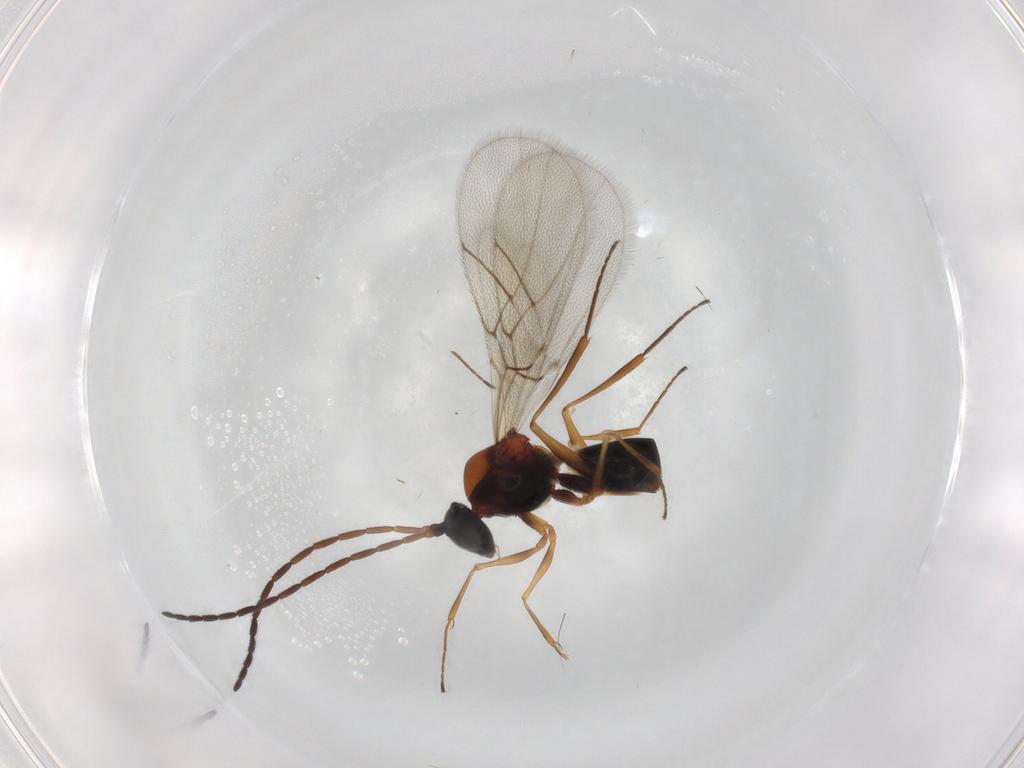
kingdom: Animalia
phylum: Arthropoda
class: Insecta
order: Hymenoptera
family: Figitidae
